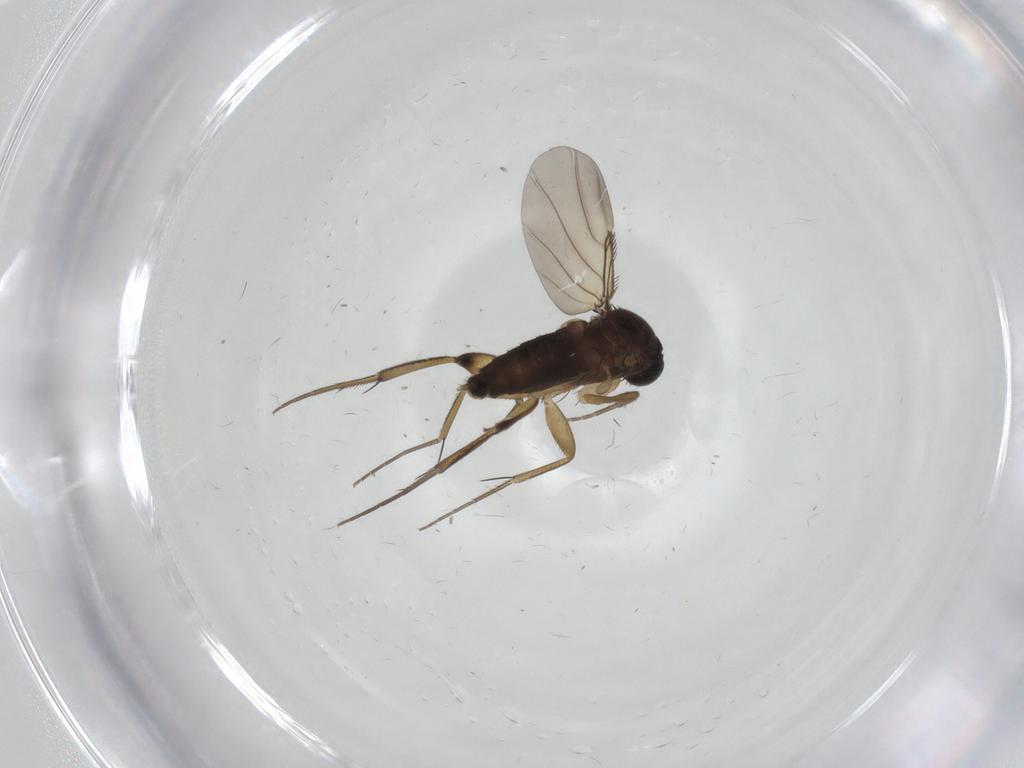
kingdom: Animalia
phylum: Arthropoda
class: Insecta
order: Diptera
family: Phoridae
